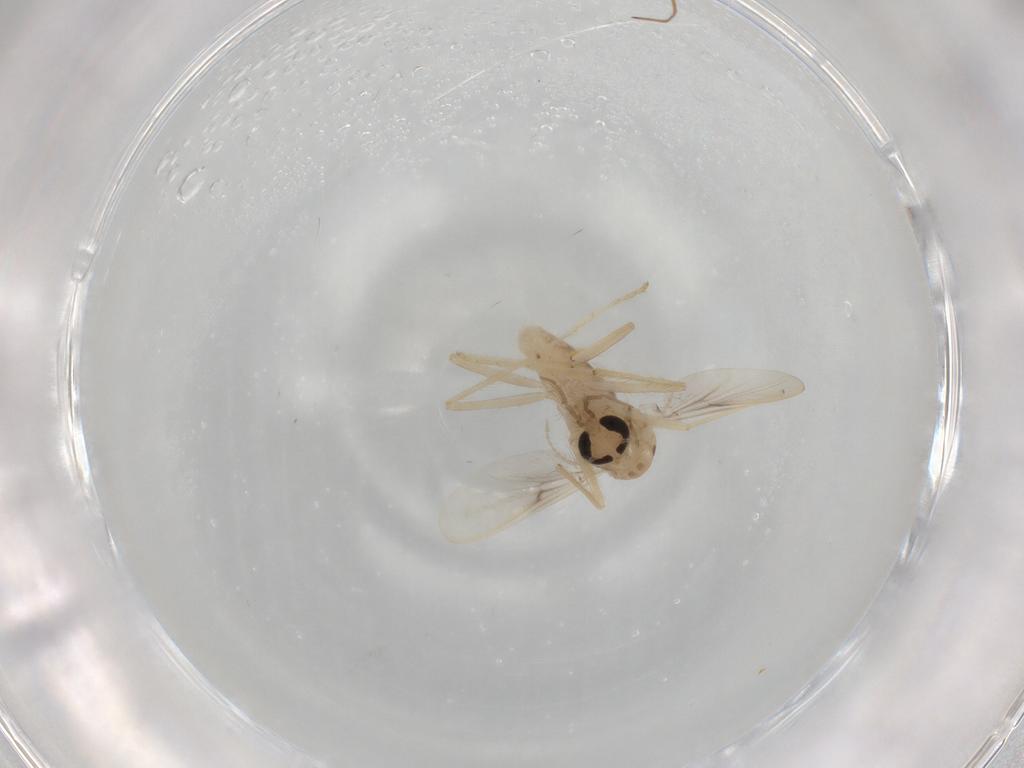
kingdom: Animalia
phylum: Arthropoda
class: Insecta
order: Diptera
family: Chironomidae
